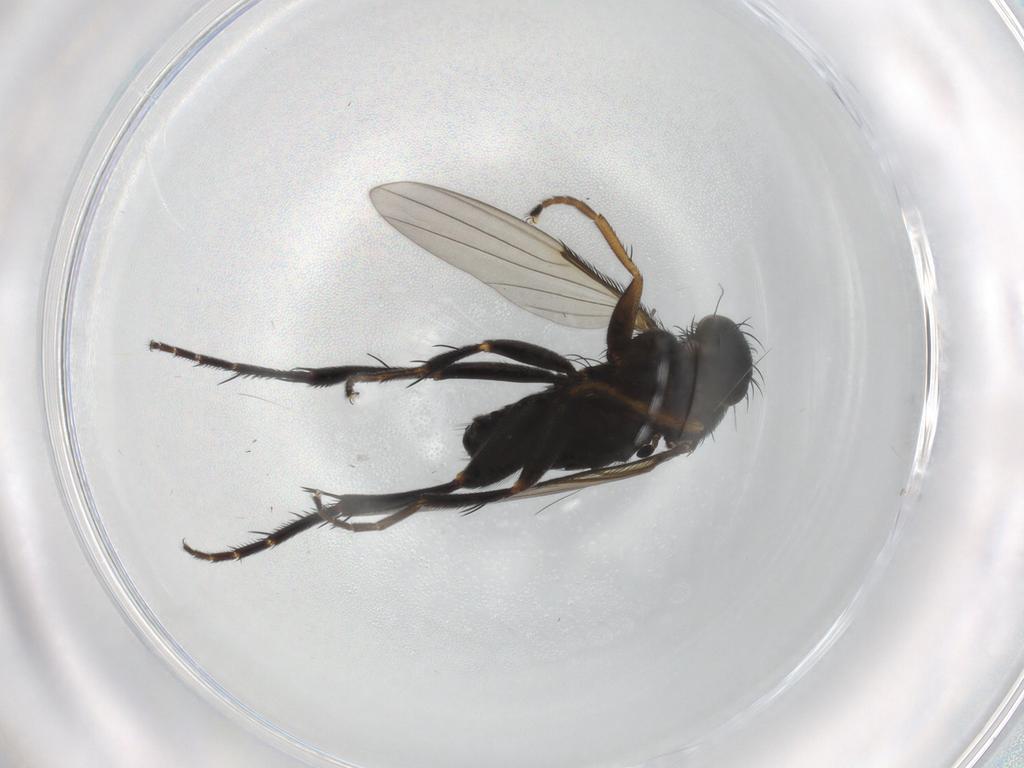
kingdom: Animalia
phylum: Arthropoda
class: Insecta
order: Diptera
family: Phoridae
